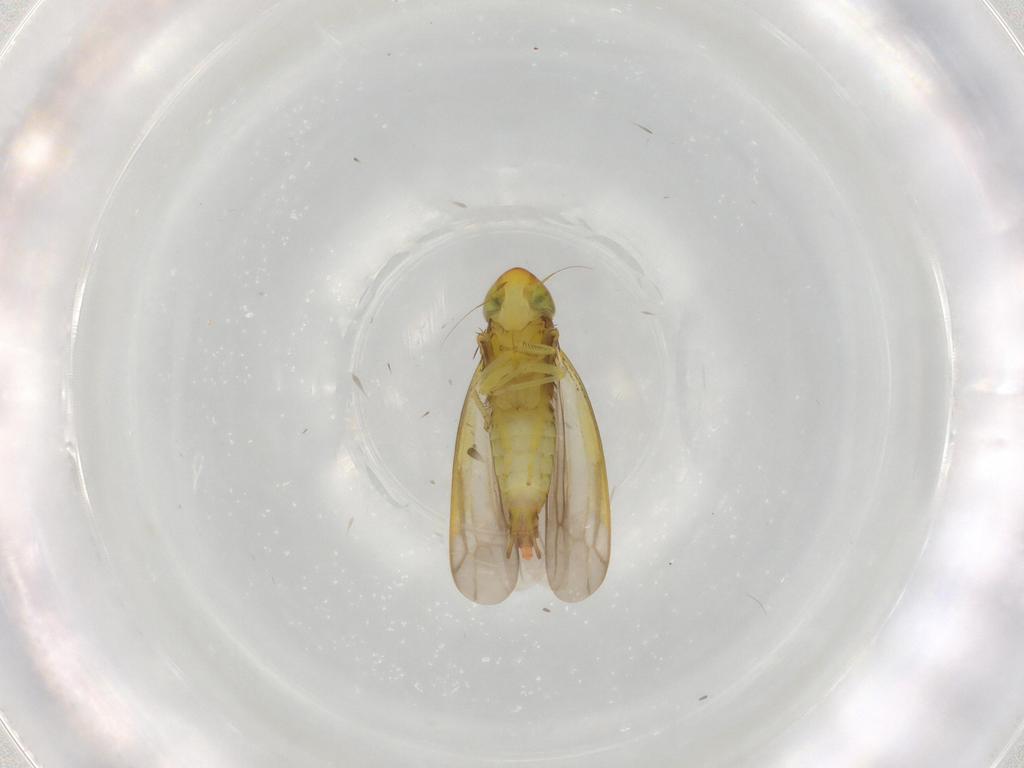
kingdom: Animalia
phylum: Arthropoda
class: Insecta
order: Hemiptera
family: Cicadellidae
